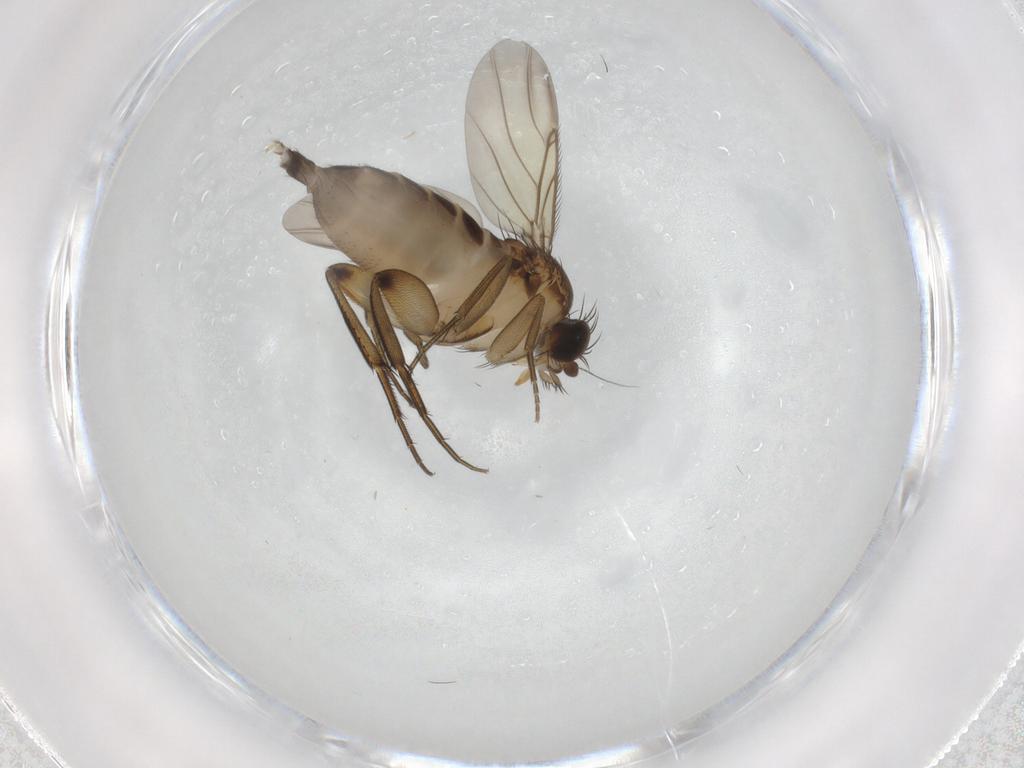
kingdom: Animalia
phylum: Arthropoda
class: Insecta
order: Diptera
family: Phoridae
